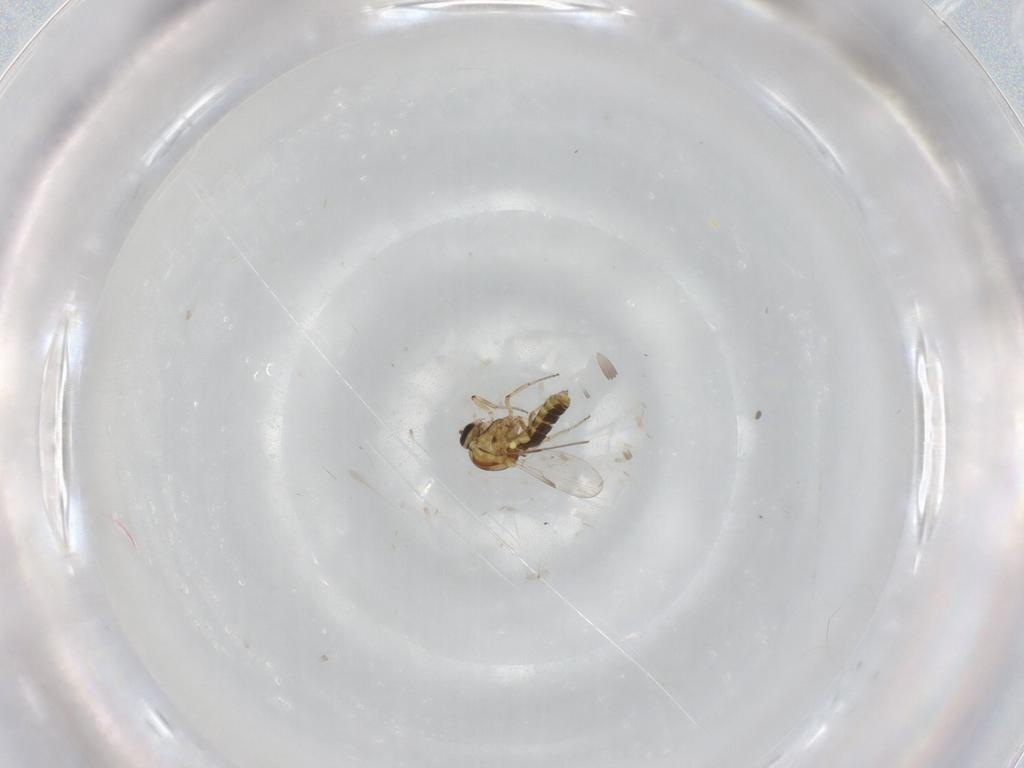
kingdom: Animalia
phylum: Arthropoda
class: Insecta
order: Diptera
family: Ceratopogonidae
